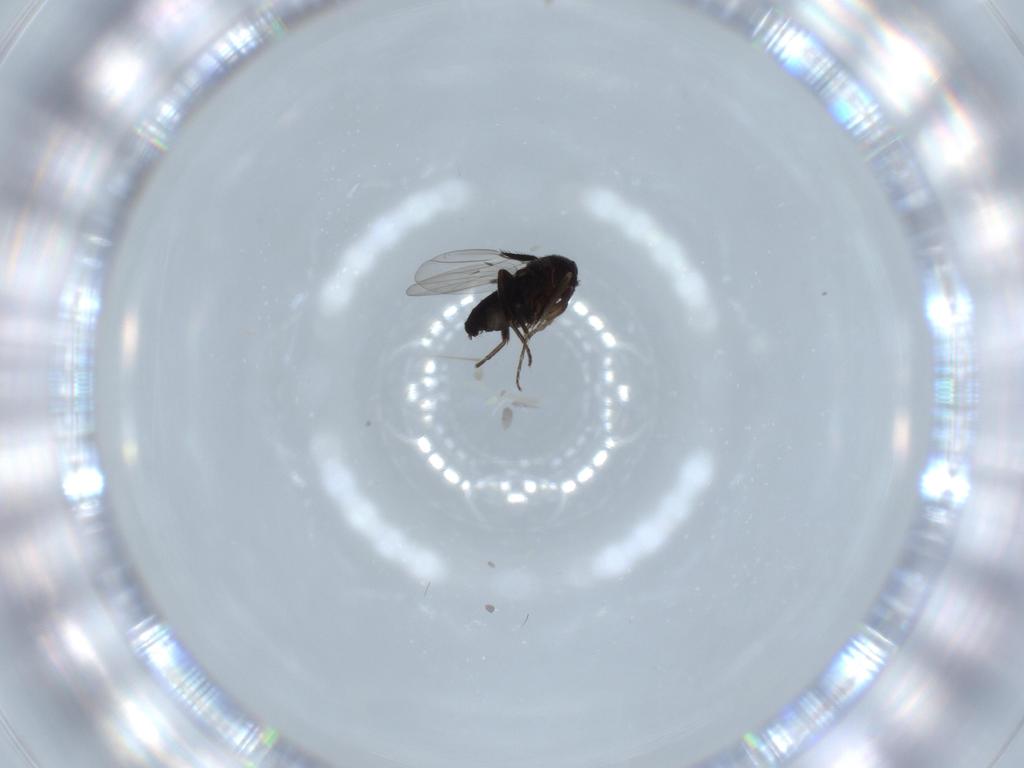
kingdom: Animalia
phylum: Arthropoda
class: Insecta
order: Diptera
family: Phoridae
